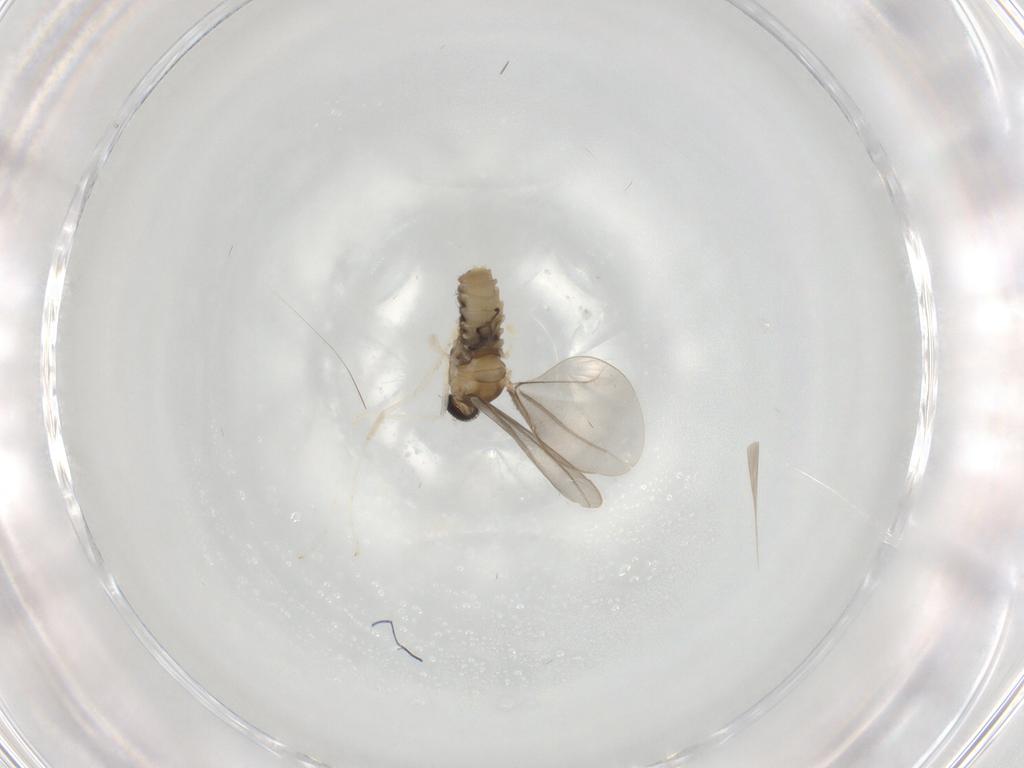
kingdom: Animalia
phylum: Arthropoda
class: Insecta
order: Diptera
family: Cecidomyiidae
